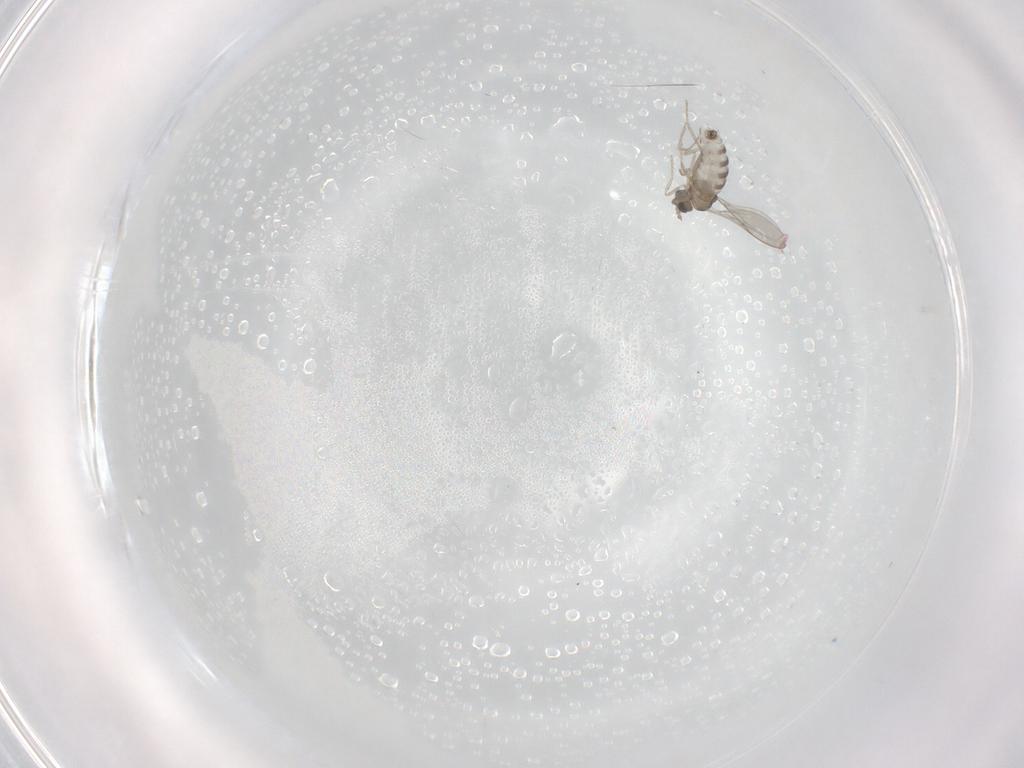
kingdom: Animalia
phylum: Arthropoda
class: Insecta
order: Diptera
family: Cecidomyiidae
